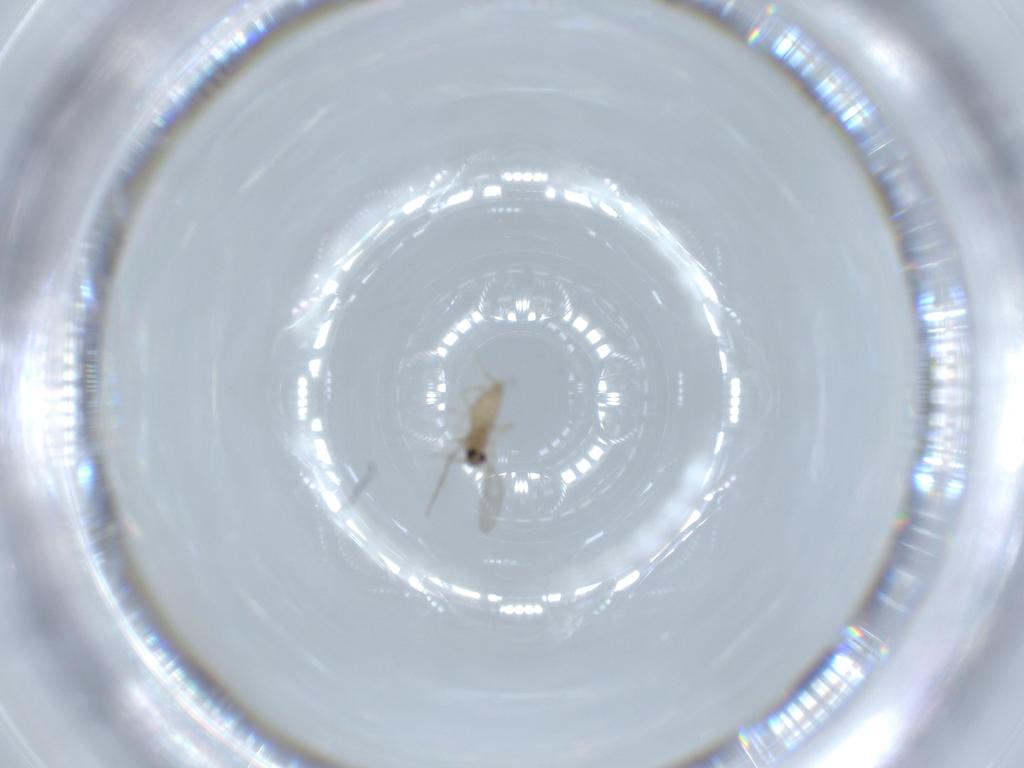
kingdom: Animalia
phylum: Arthropoda
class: Insecta
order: Diptera
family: Cecidomyiidae
